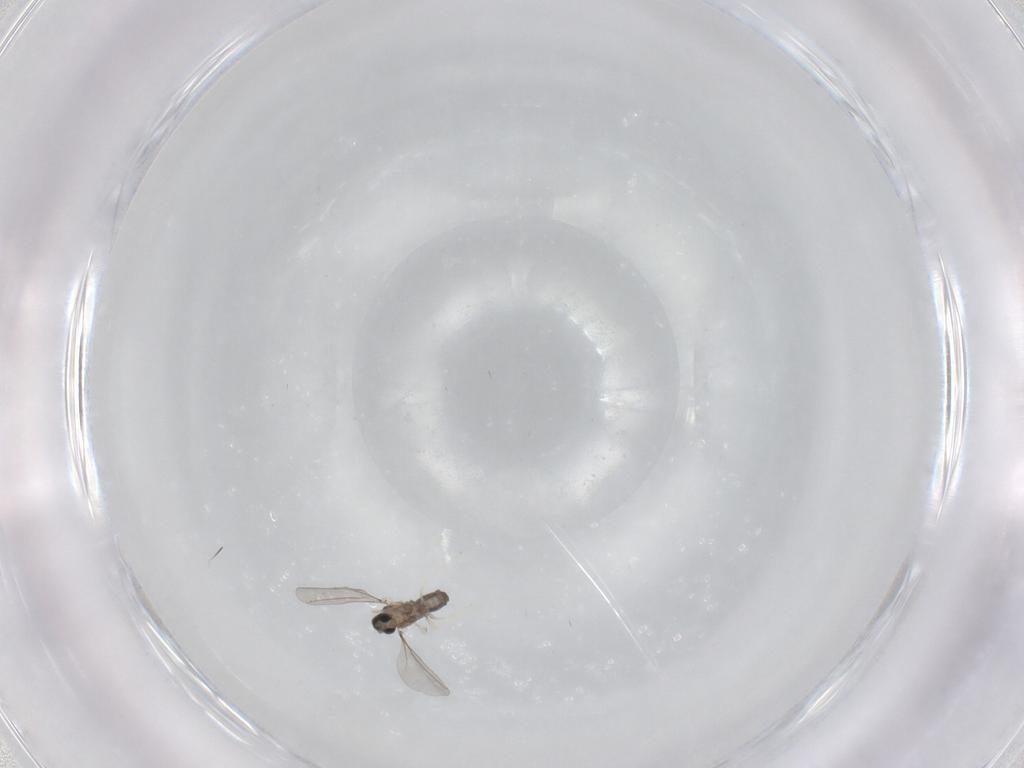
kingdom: Animalia
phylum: Arthropoda
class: Insecta
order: Diptera
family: Cecidomyiidae
